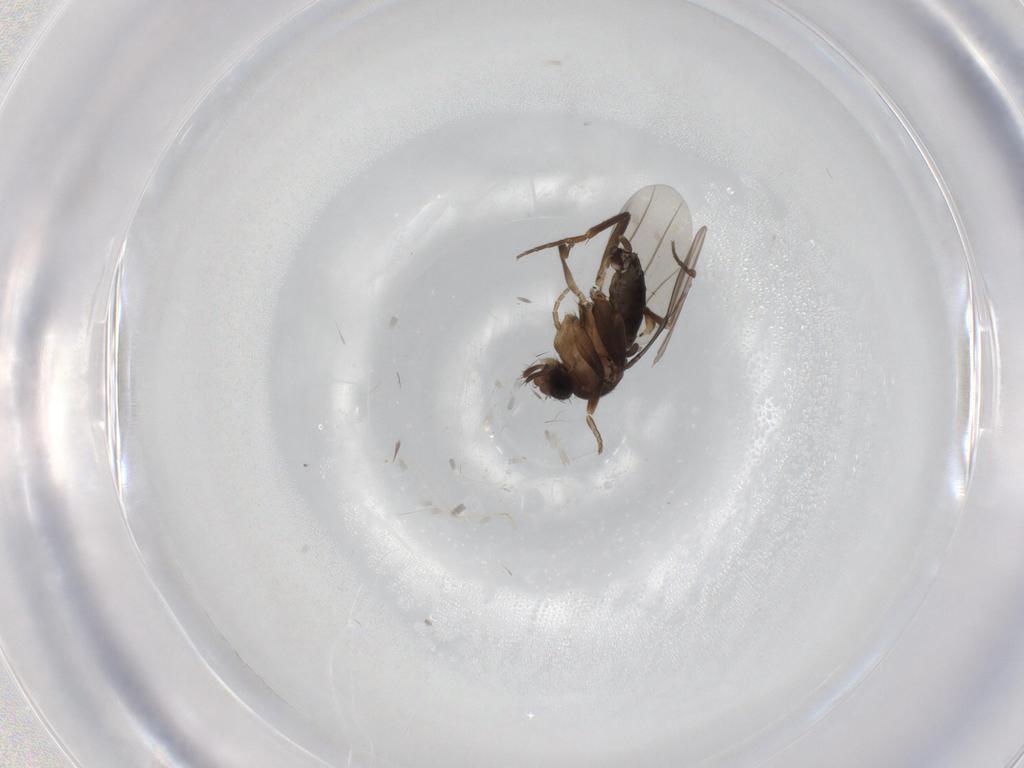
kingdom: Animalia
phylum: Arthropoda
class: Insecta
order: Diptera
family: Phoridae
